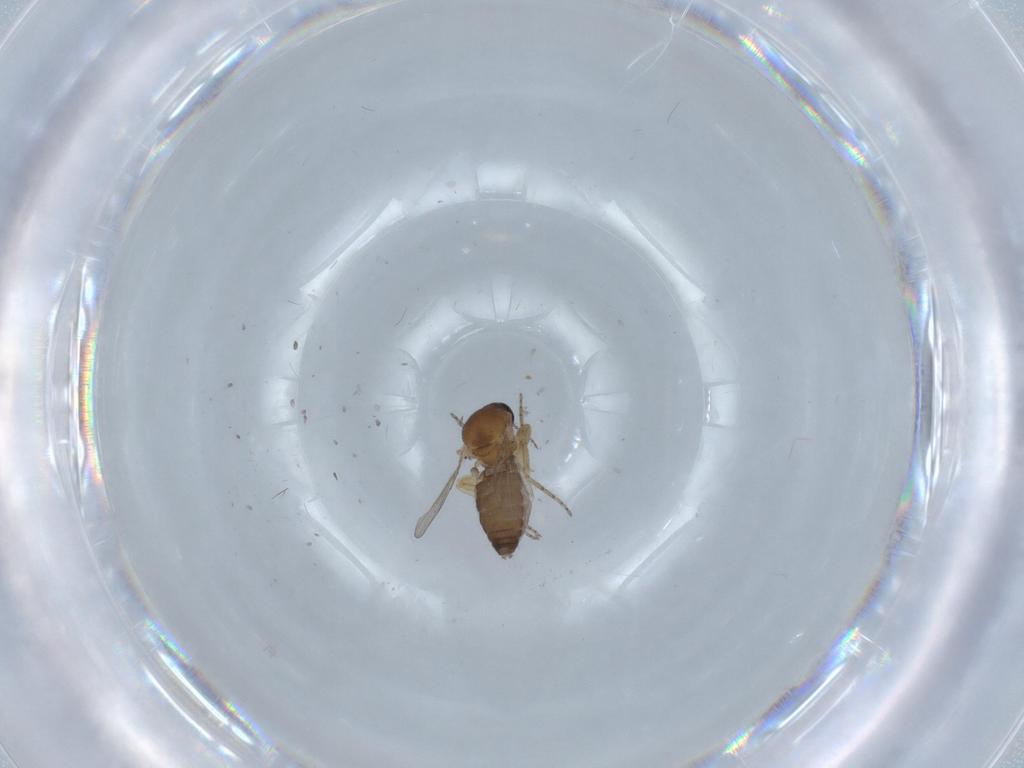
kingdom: Animalia
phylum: Arthropoda
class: Insecta
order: Diptera
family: Ceratopogonidae
